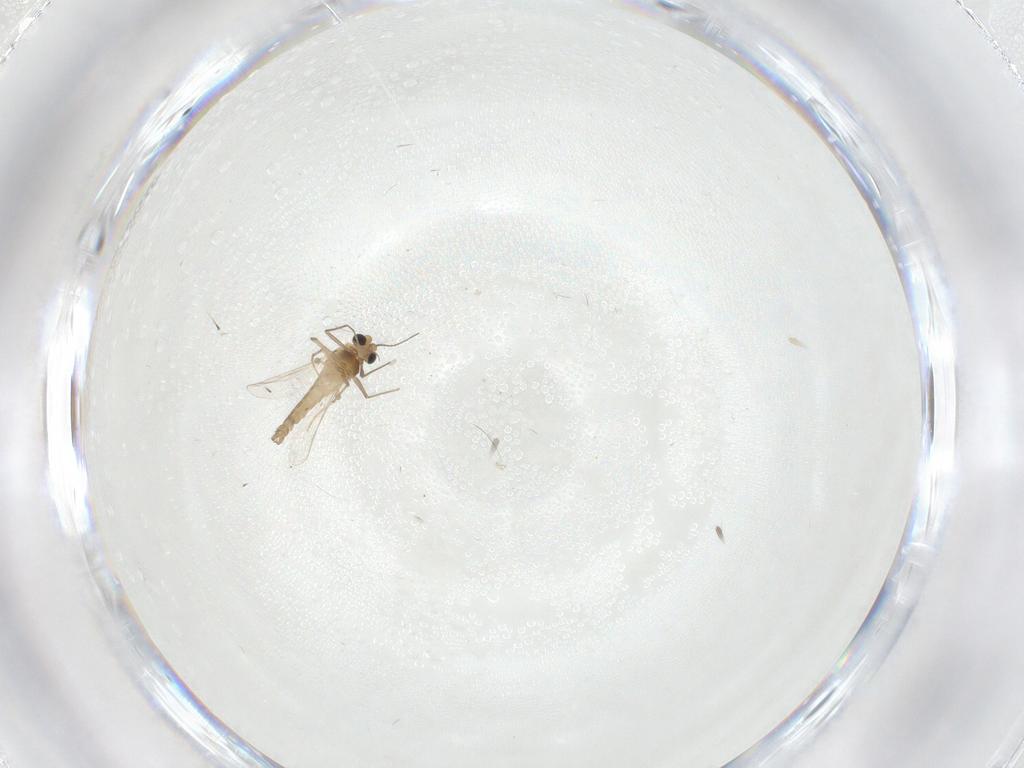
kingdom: Animalia
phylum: Arthropoda
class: Insecta
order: Diptera
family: Chironomidae
